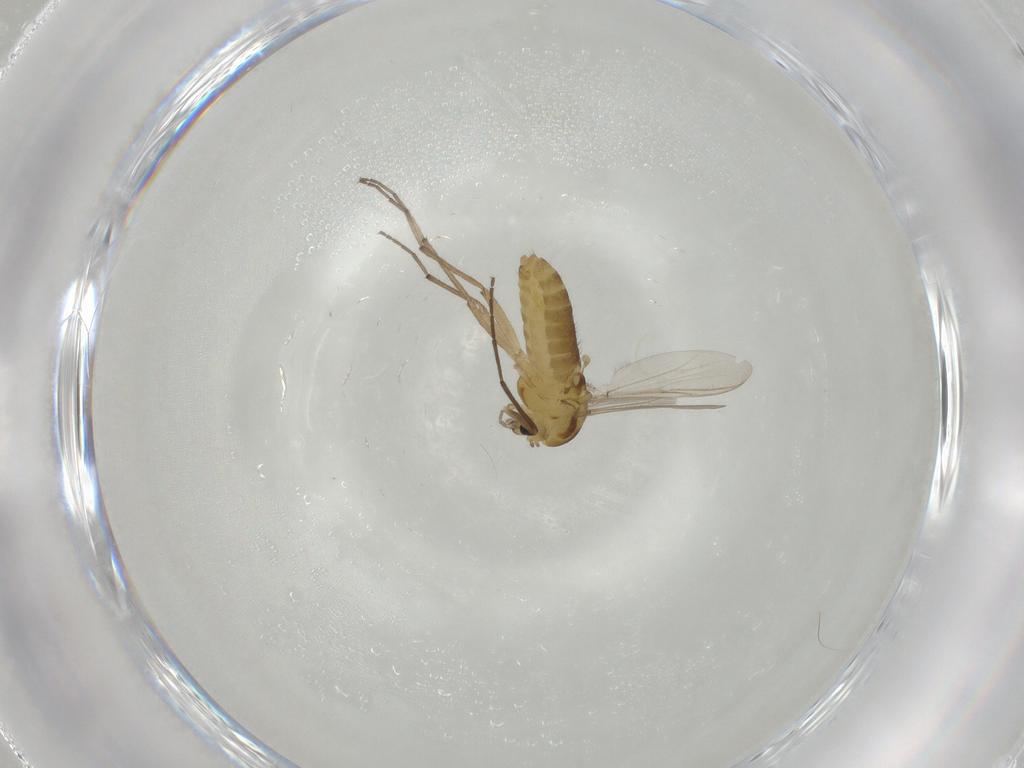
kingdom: Animalia
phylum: Arthropoda
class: Insecta
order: Diptera
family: Chironomidae
